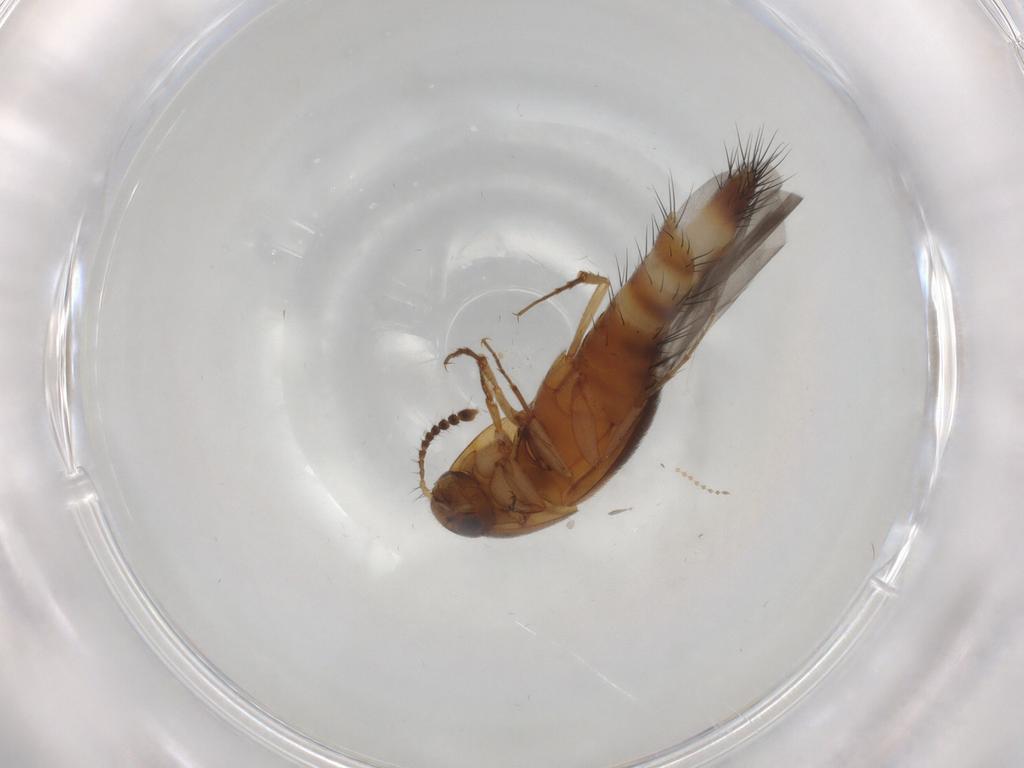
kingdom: Animalia
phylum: Arthropoda
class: Insecta
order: Coleoptera
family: Staphylinidae
